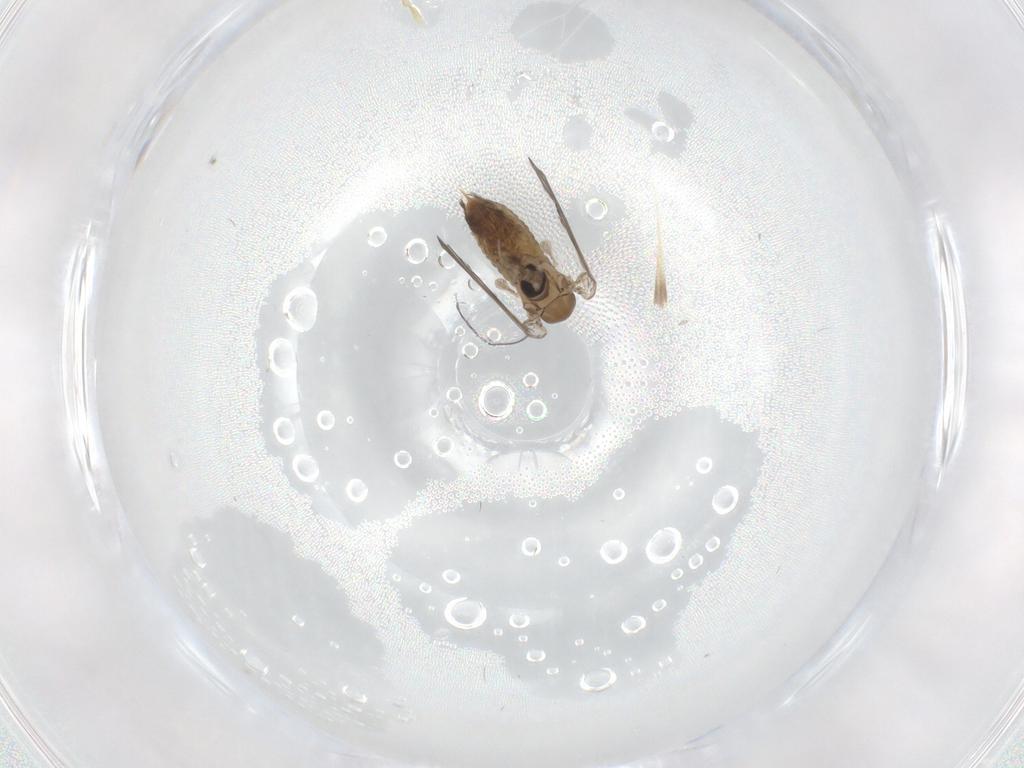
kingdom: Animalia
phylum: Arthropoda
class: Insecta
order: Diptera
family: Psychodidae
